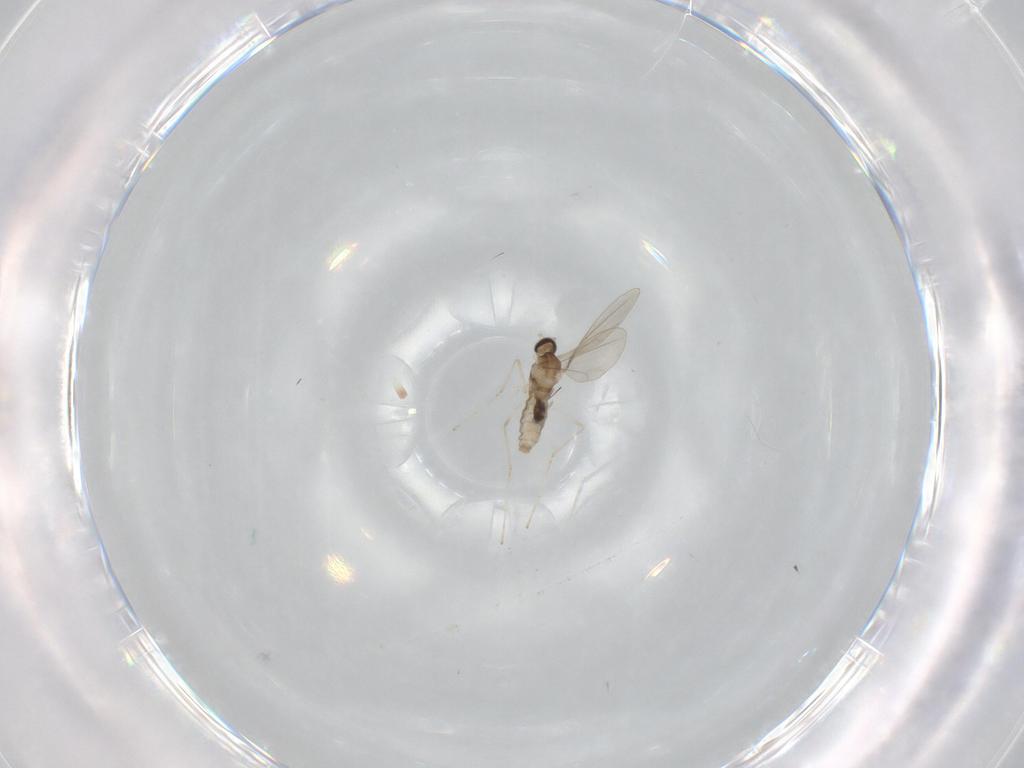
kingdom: Animalia
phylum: Arthropoda
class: Insecta
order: Diptera
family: Cecidomyiidae
